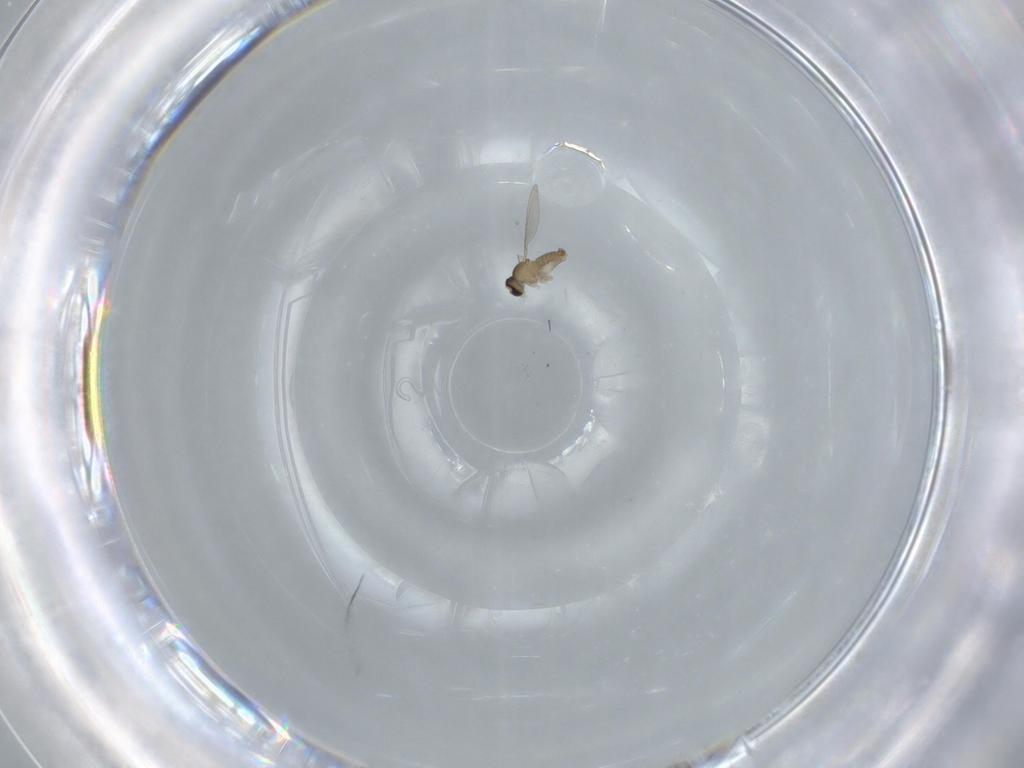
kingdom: Animalia
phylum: Arthropoda
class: Insecta
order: Diptera
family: Cecidomyiidae
